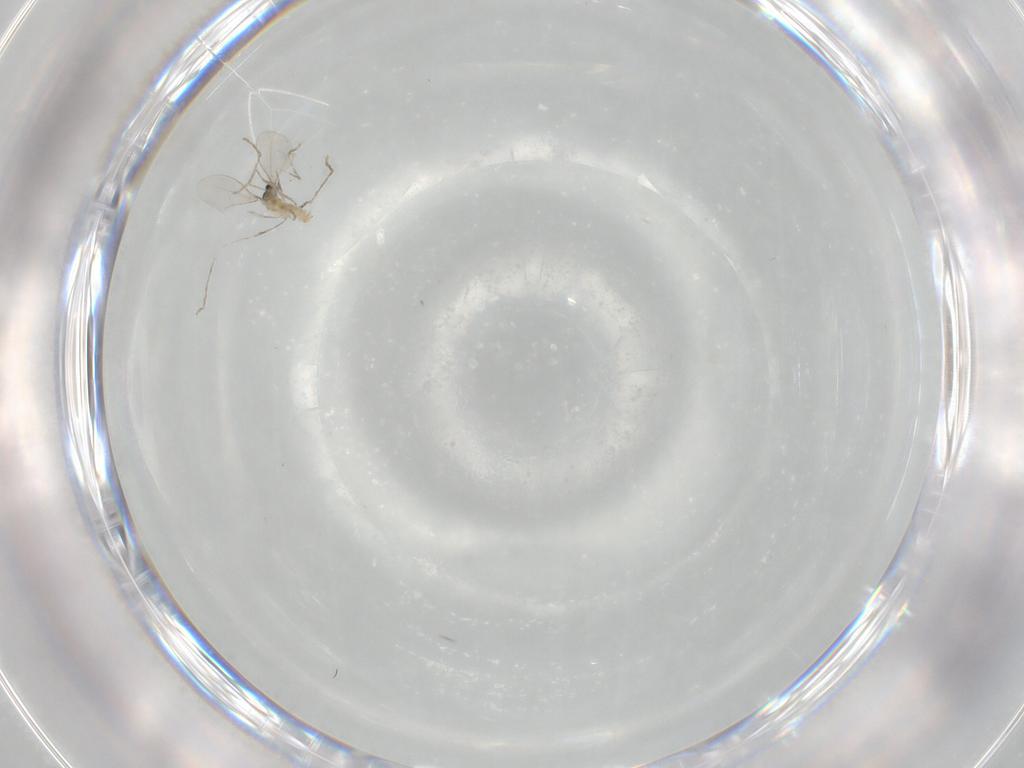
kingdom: Animalia
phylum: Arthropoda
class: Insecta
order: Diptera
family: Cecidomyiidae
